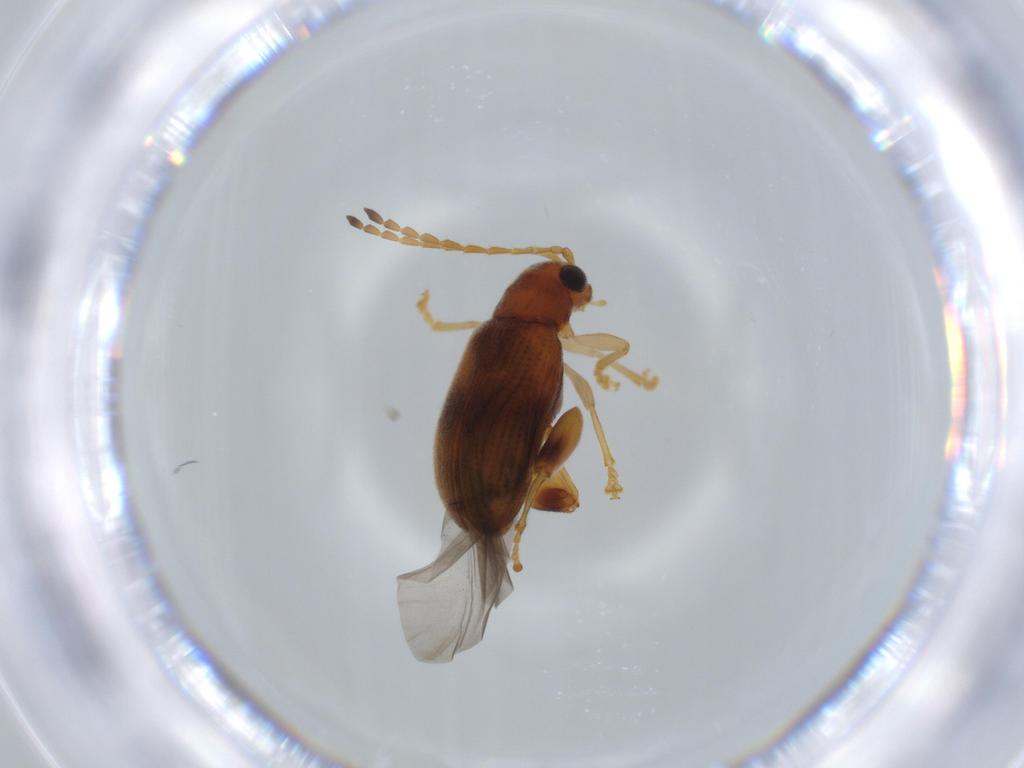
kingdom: Animalia
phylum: Arthropoda
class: Insecta
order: Coleoptera
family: Chrysomelidae
